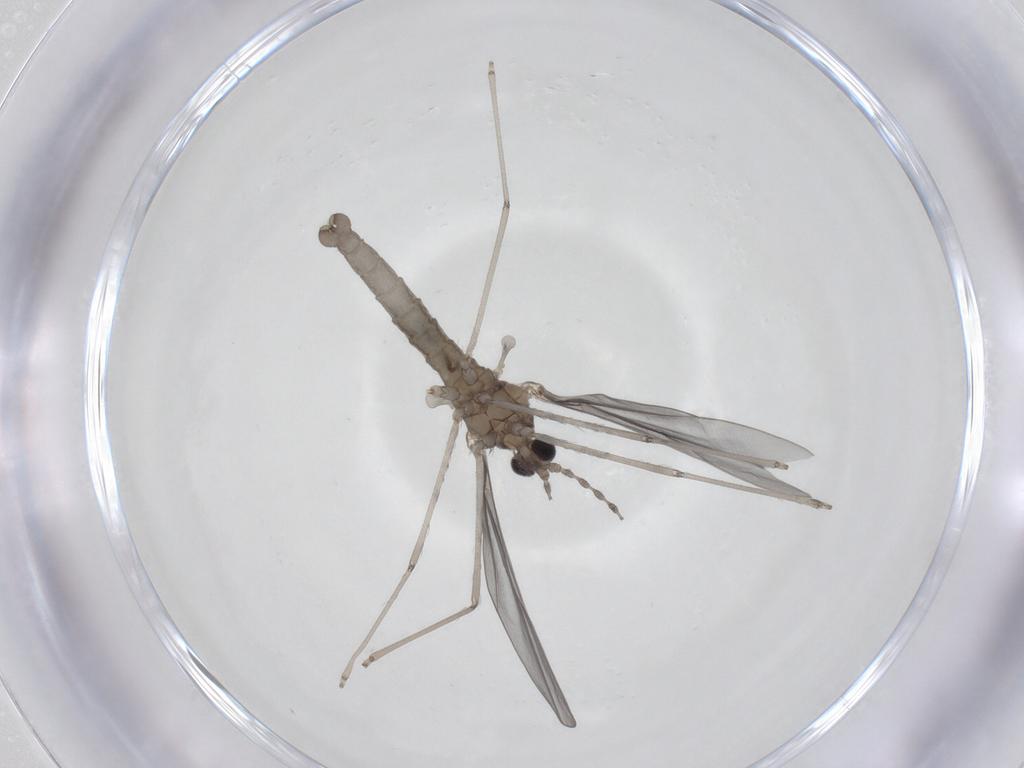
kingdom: Animalia
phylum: Arthropoda
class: Insecta
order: Diptera
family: Cecidomyiidae
